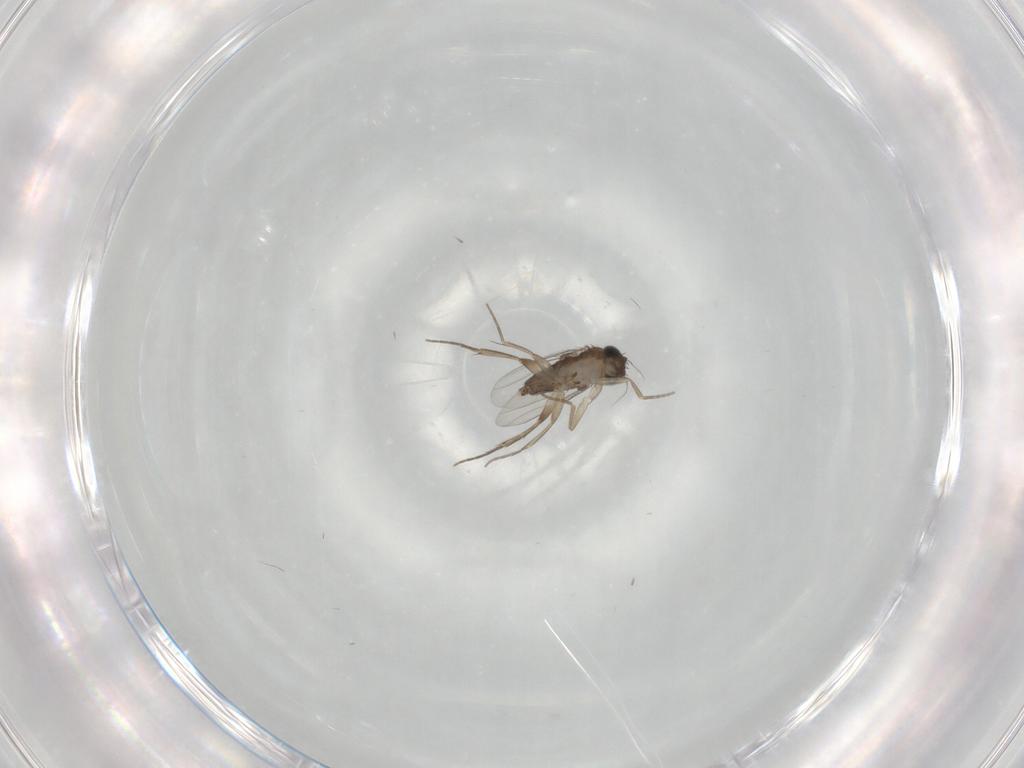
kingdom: Animalia
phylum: Arthropoda
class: Insecta
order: Diptera
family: Phoridae
